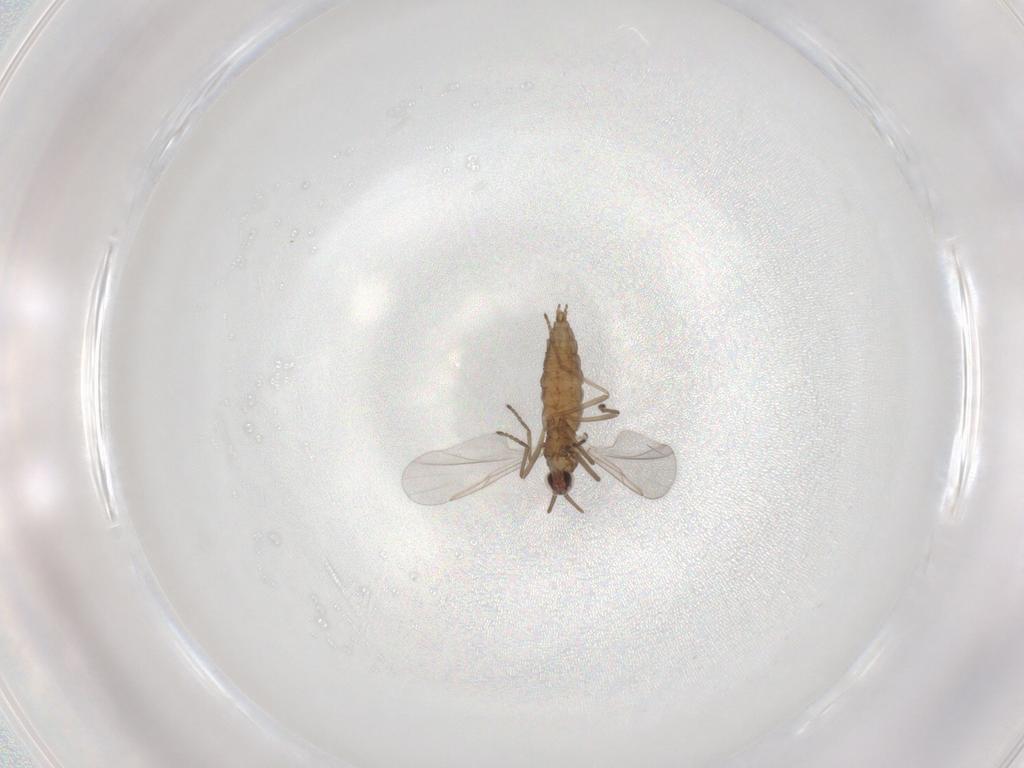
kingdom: Animalia
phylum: Arthropoda
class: Insecta
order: Diptera
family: Cecidomyiidae
